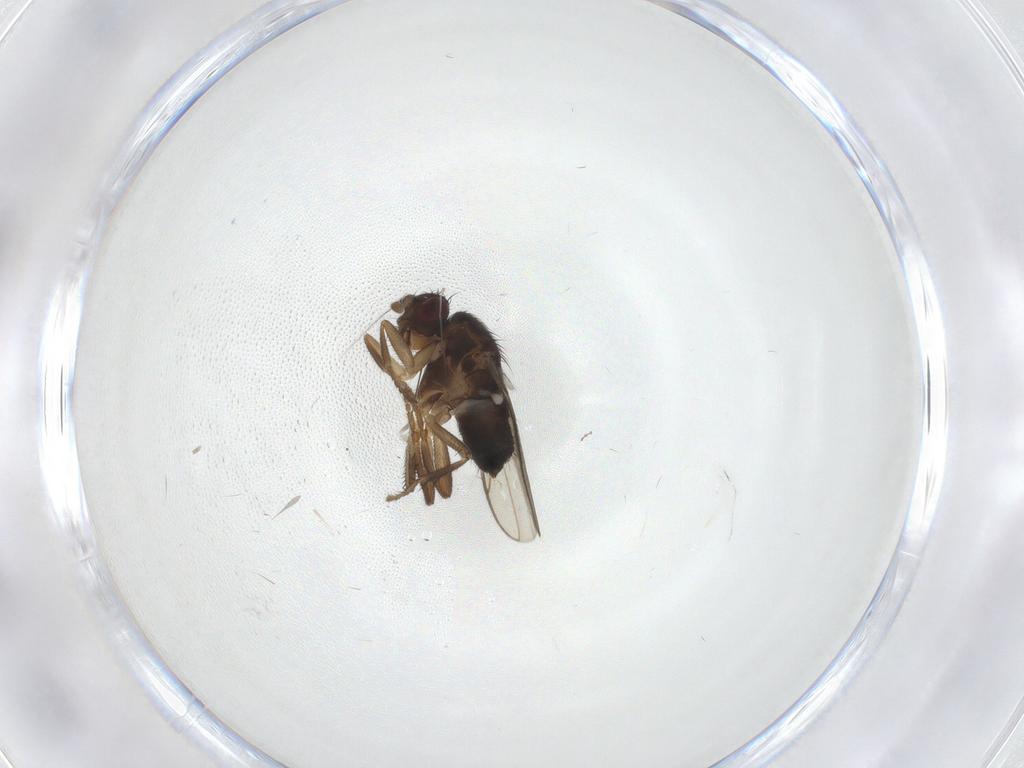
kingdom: Animalia
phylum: Arthropoda
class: Insecta
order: Diptera
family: Sphaeroceridae
